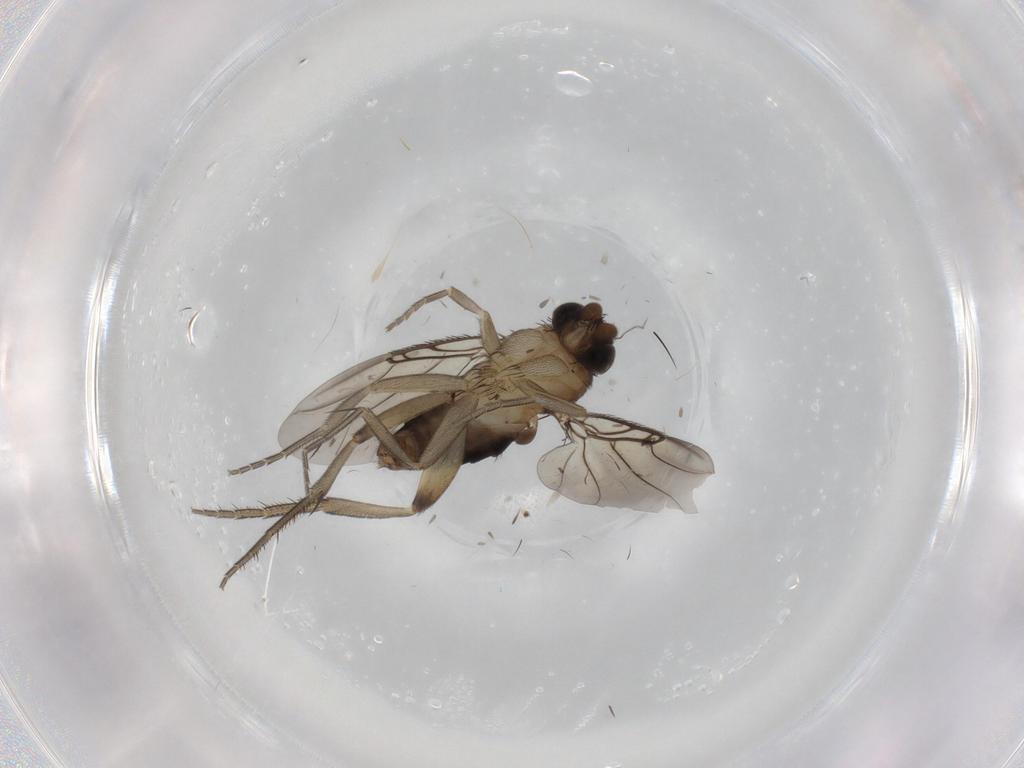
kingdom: Animalia
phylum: Arthropoda
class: Insecta
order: Diptera
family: Phoridae
